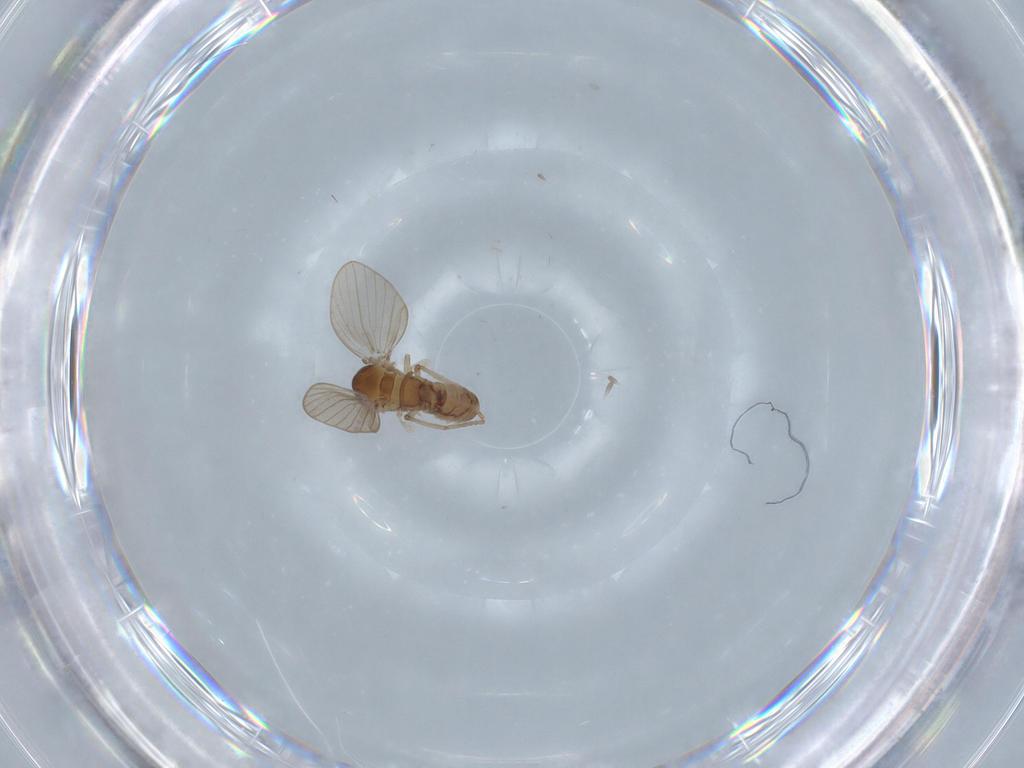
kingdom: Animalia
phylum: Arthropoda
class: Insecta
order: Diptera
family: Psychodidae
